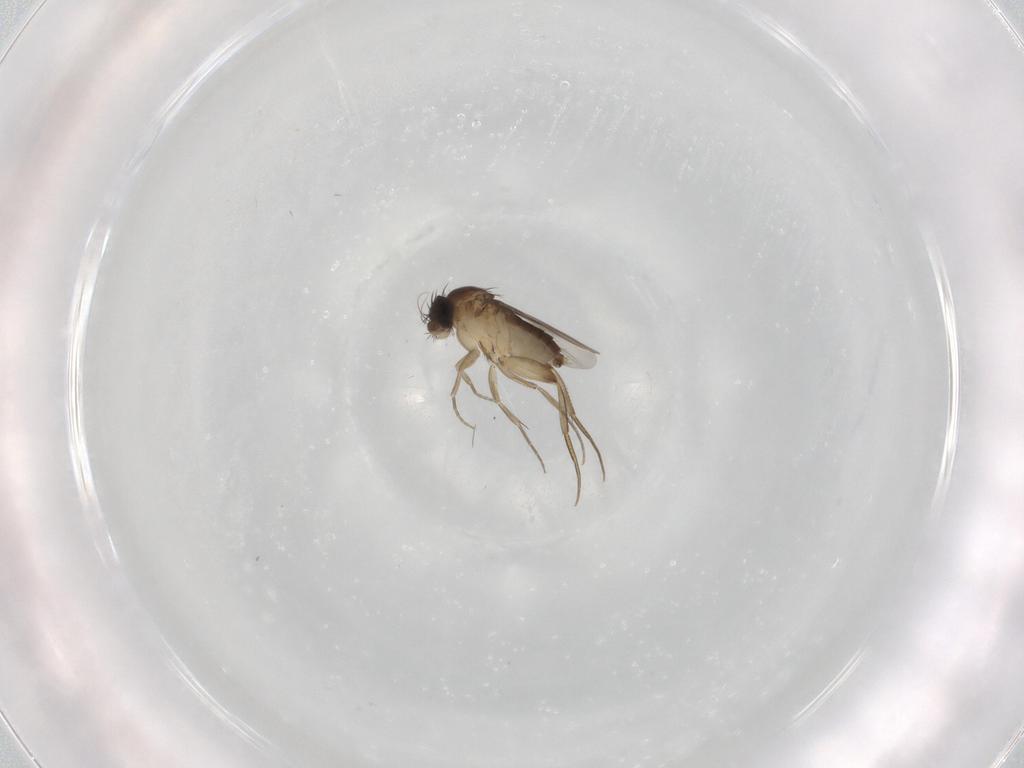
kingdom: Animalia
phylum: Arthropoda
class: Insecta
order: Diptera
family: Phoridae
